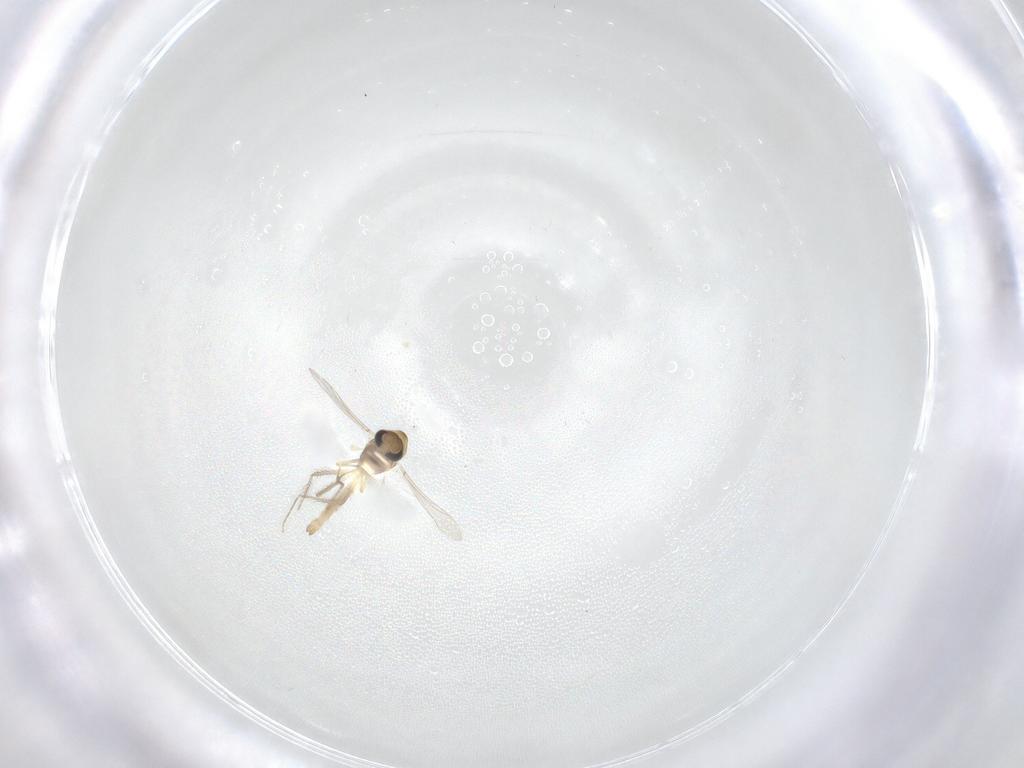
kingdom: Animalia
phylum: Arthropoda
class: Insecta
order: Diptera
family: Chironomidae
